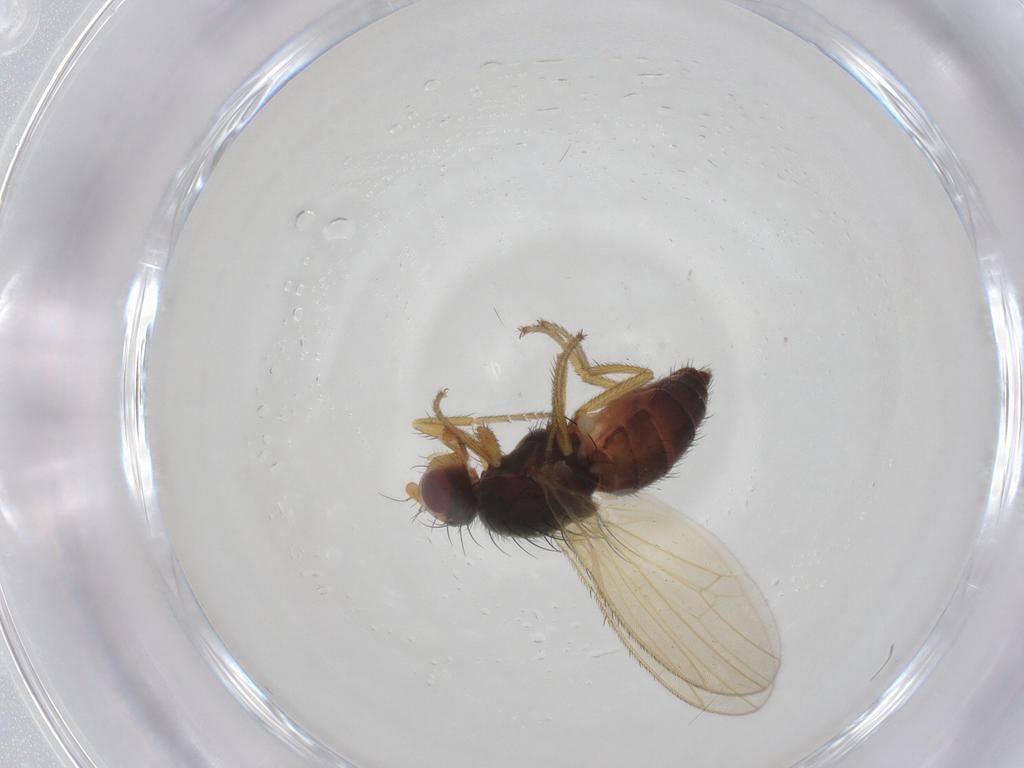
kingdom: Animalia
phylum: Arthropoda
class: Insecta
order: Diptera
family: Heleomyzidae
